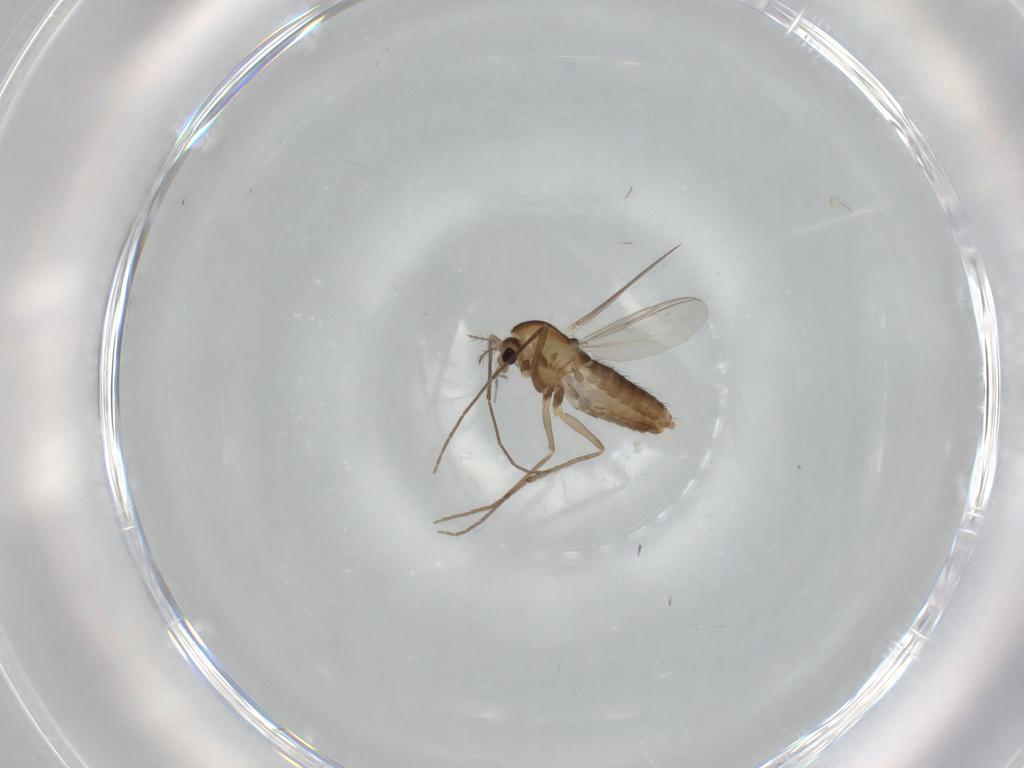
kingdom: Animalia
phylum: Arthropoda
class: Insecta
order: Diptera
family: Chironomidae
